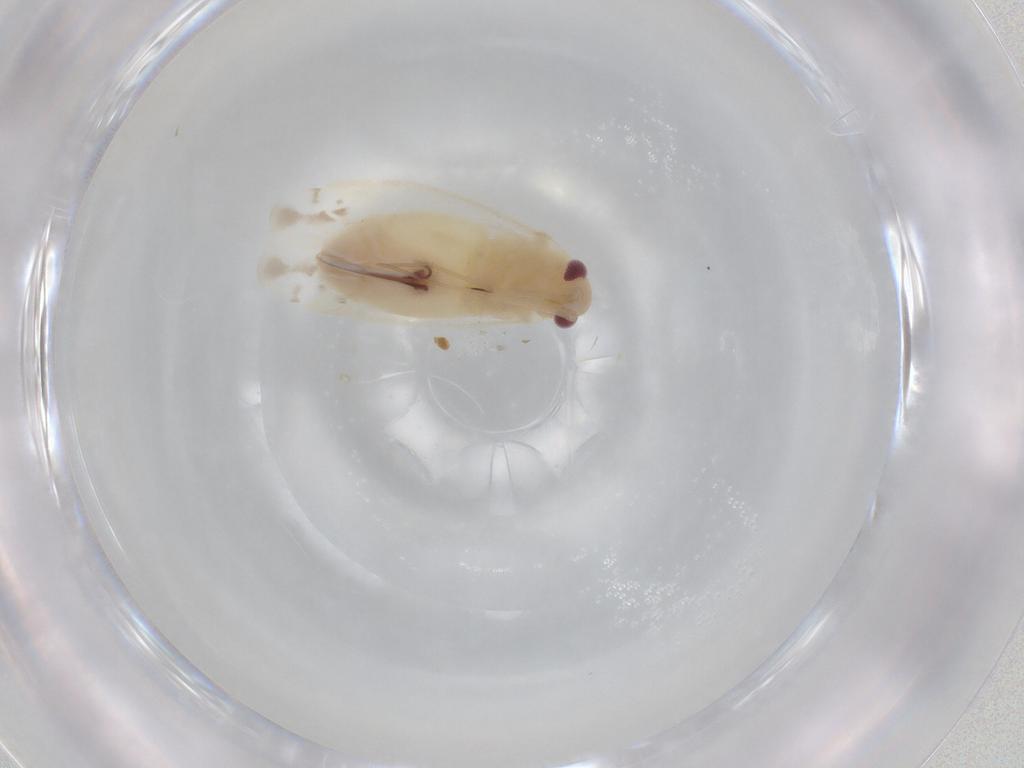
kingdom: Animalia
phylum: Arthropoda
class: Insecta
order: Hemiptera
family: Miridae
